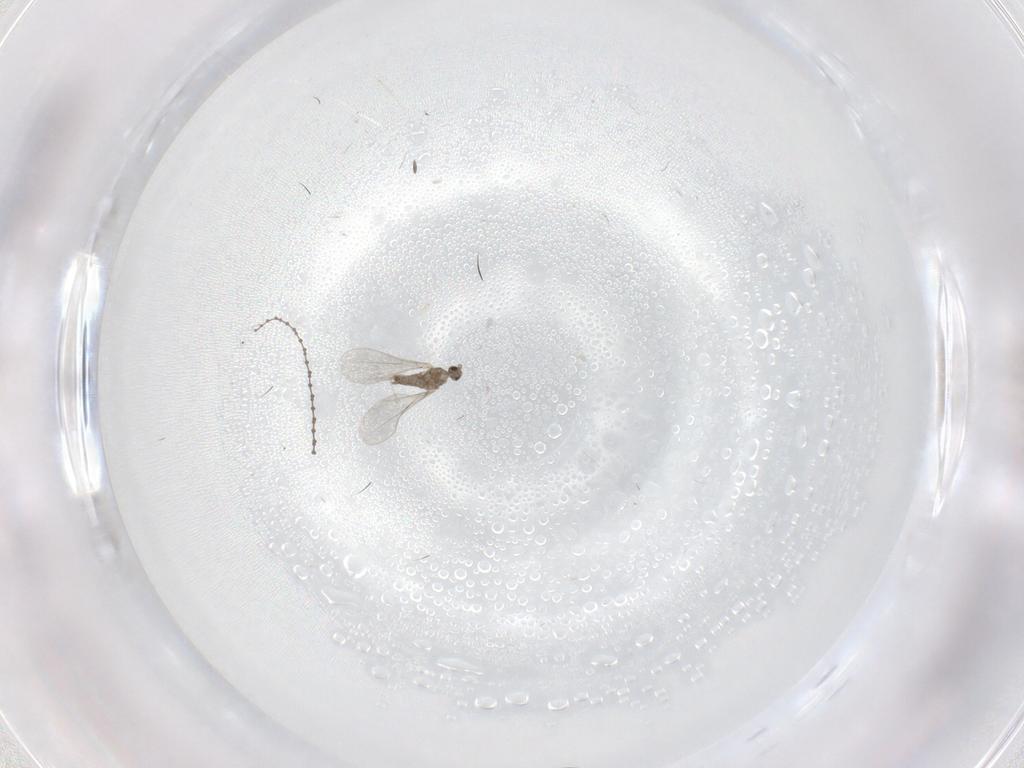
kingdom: Animalia
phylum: Arthropoda
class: Insecta
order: Diptera
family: Cecidomyiidae
